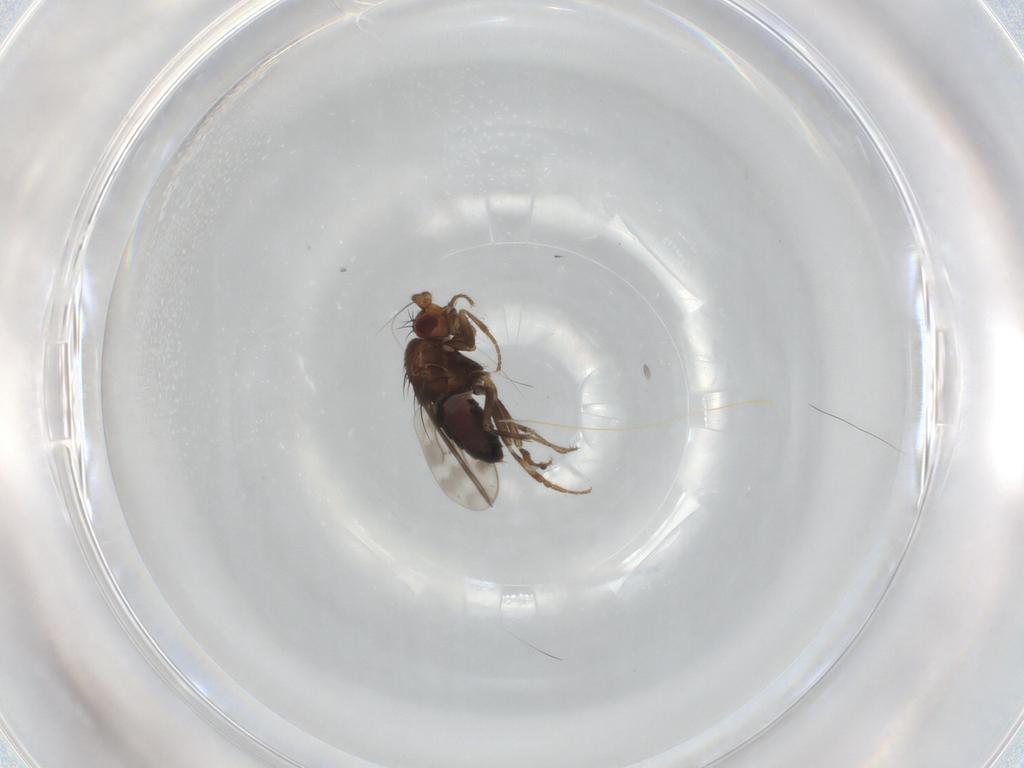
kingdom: Animalia
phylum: Arthropoda
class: Insecta
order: Diptera
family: Sphaeroceridae
